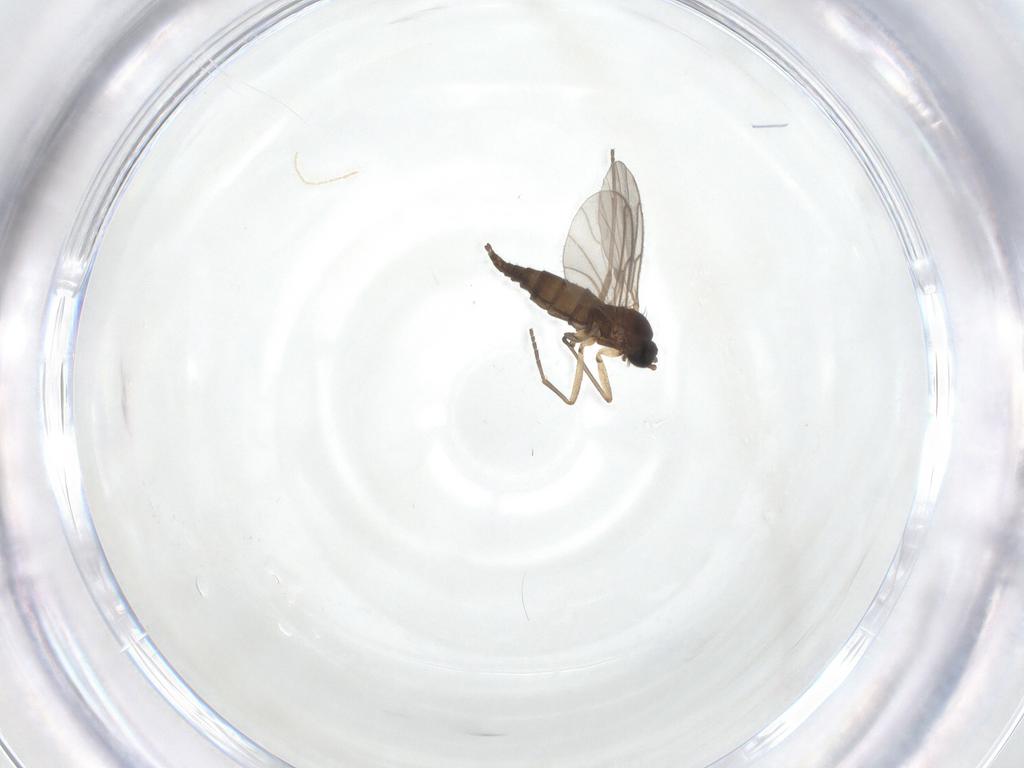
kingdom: Animalia
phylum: Arthropoda
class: Insecta
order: Diptera
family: Sciaridae
